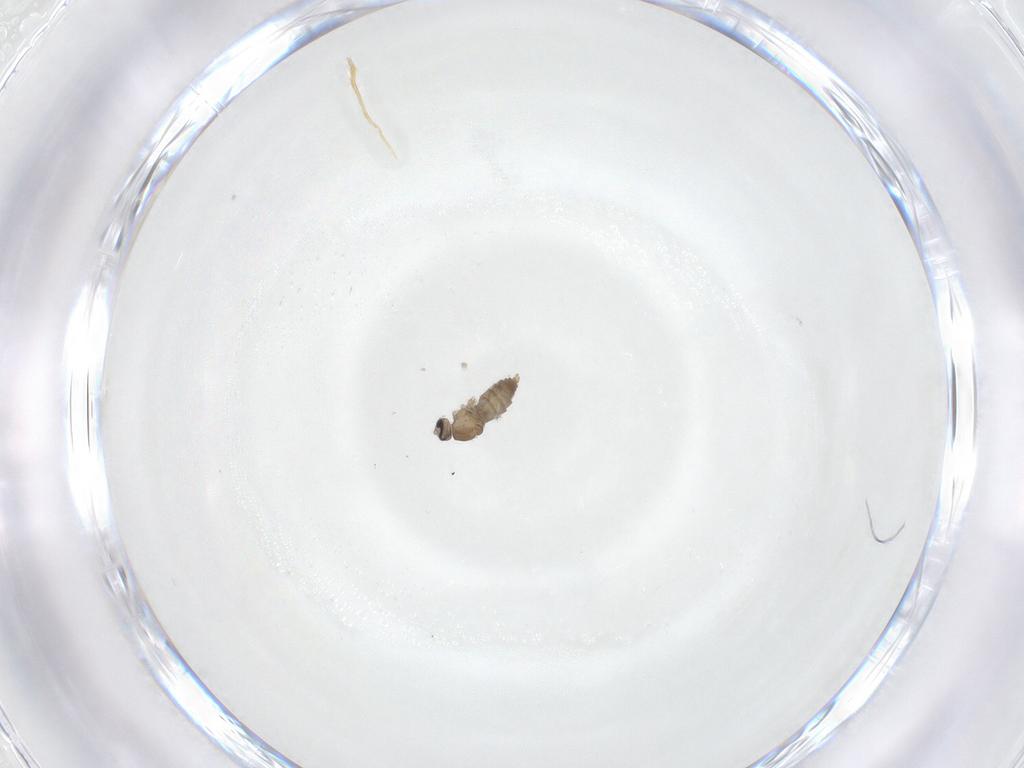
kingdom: Animalia
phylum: Arthropoda
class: Insecta
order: Diptera
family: Cecidomyiidae
